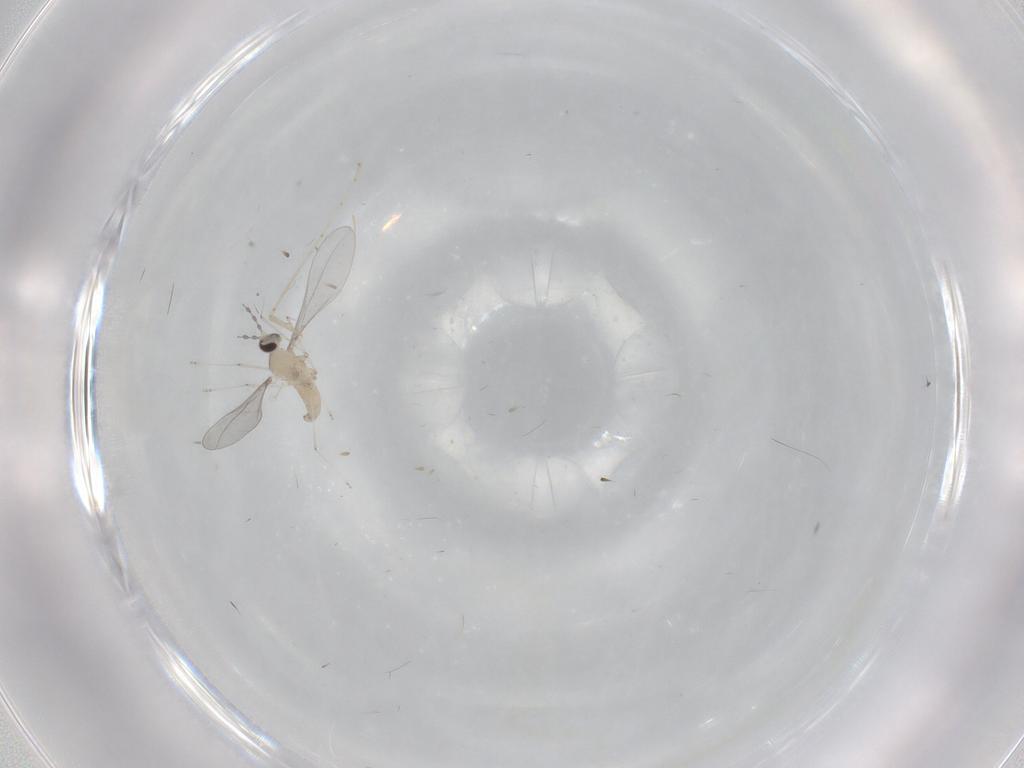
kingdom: Animalia
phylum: Arthropoda
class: Insecta
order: Diptera
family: Cecidomyiidae
